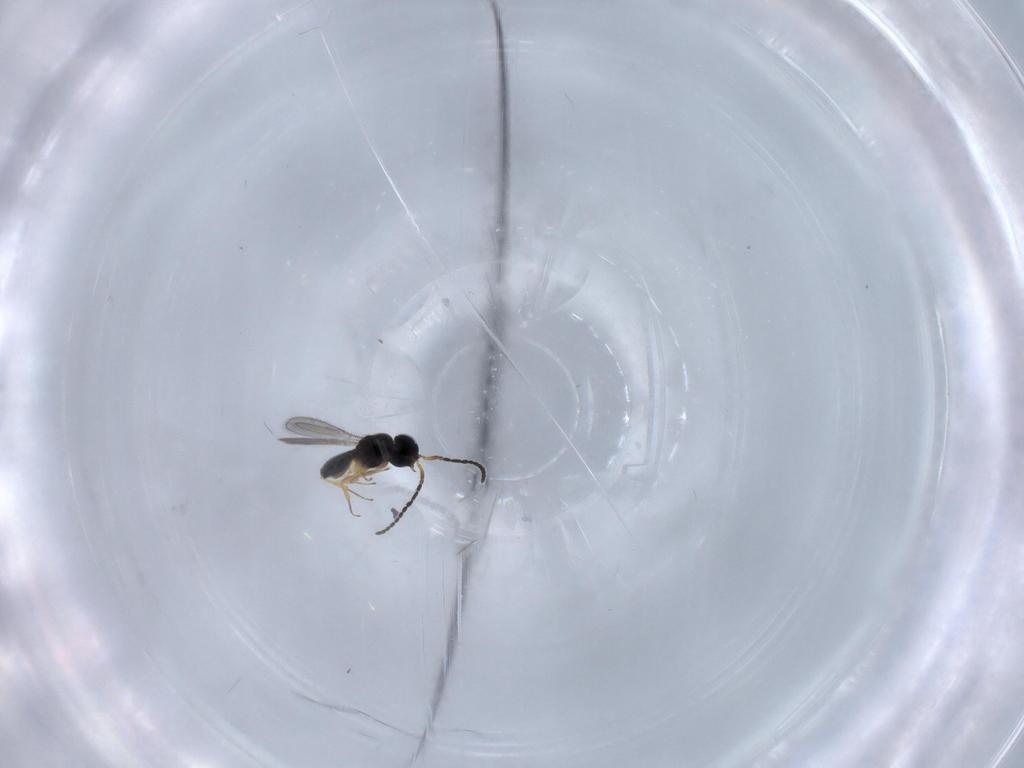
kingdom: Animalia
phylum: Arthropoda
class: Insecta
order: Hymenoptera
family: Scelionidae
